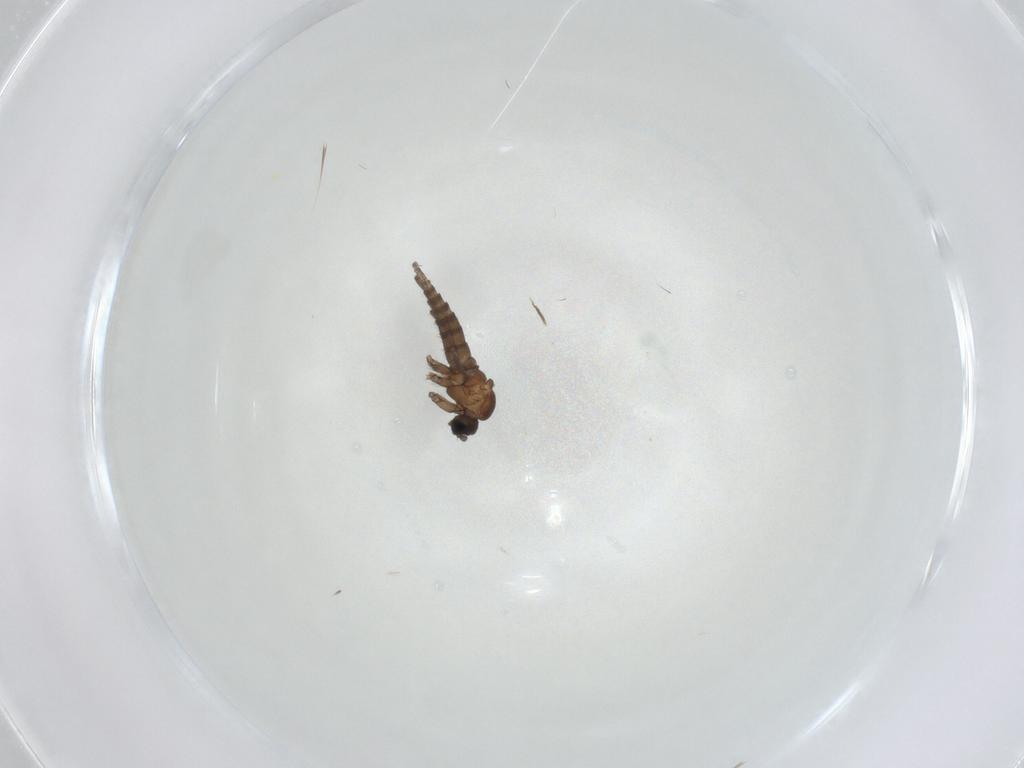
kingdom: Animalia
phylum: Arthropoda
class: Insecta
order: Diptera
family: Sciaridae
